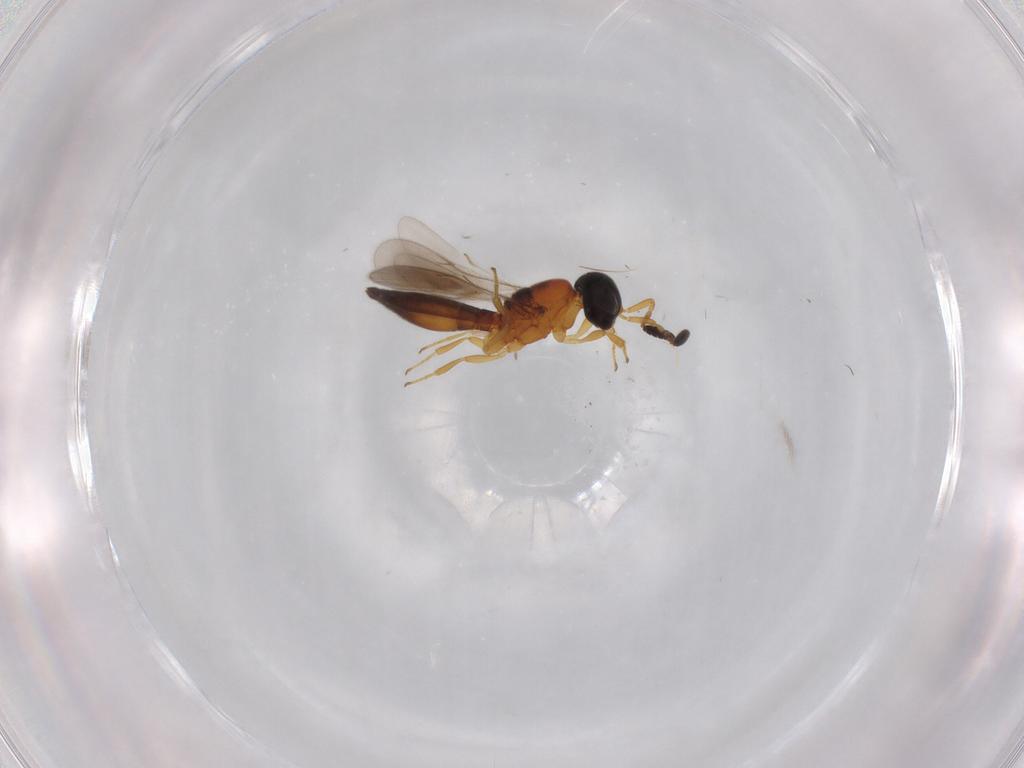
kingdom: Animalia
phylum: Arthropoda
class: Insecta
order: Hymenoptera
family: Scelionidae
